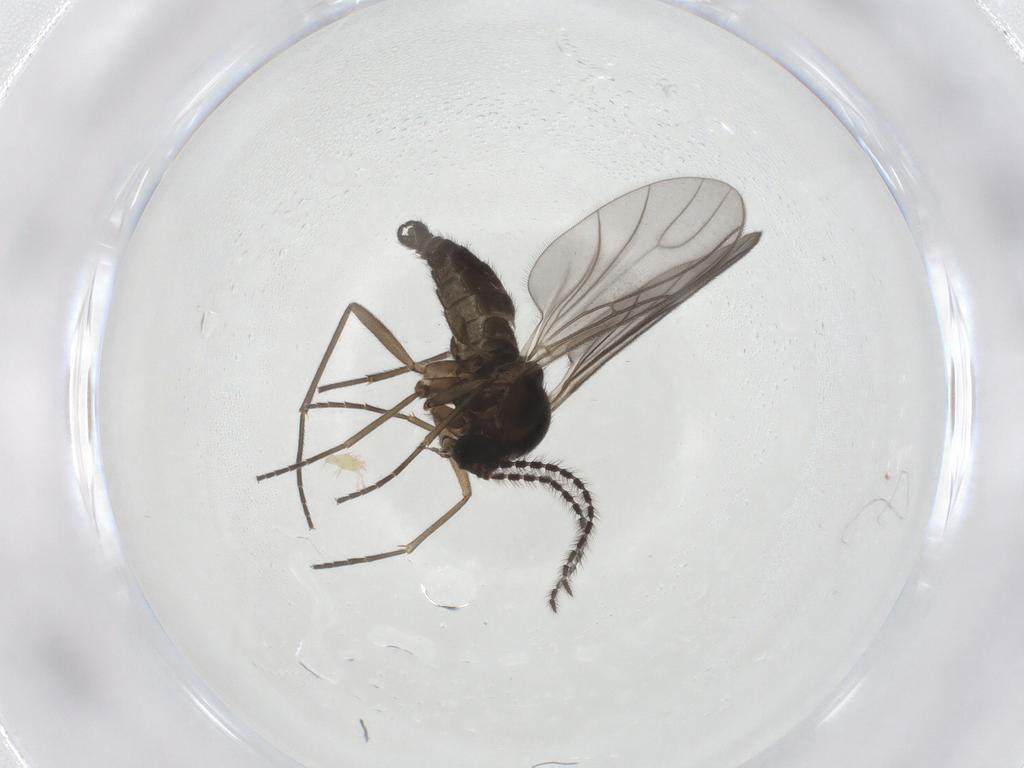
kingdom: Animalia
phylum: Arthropoda
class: Insecta
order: Diptera
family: Sciaridae
